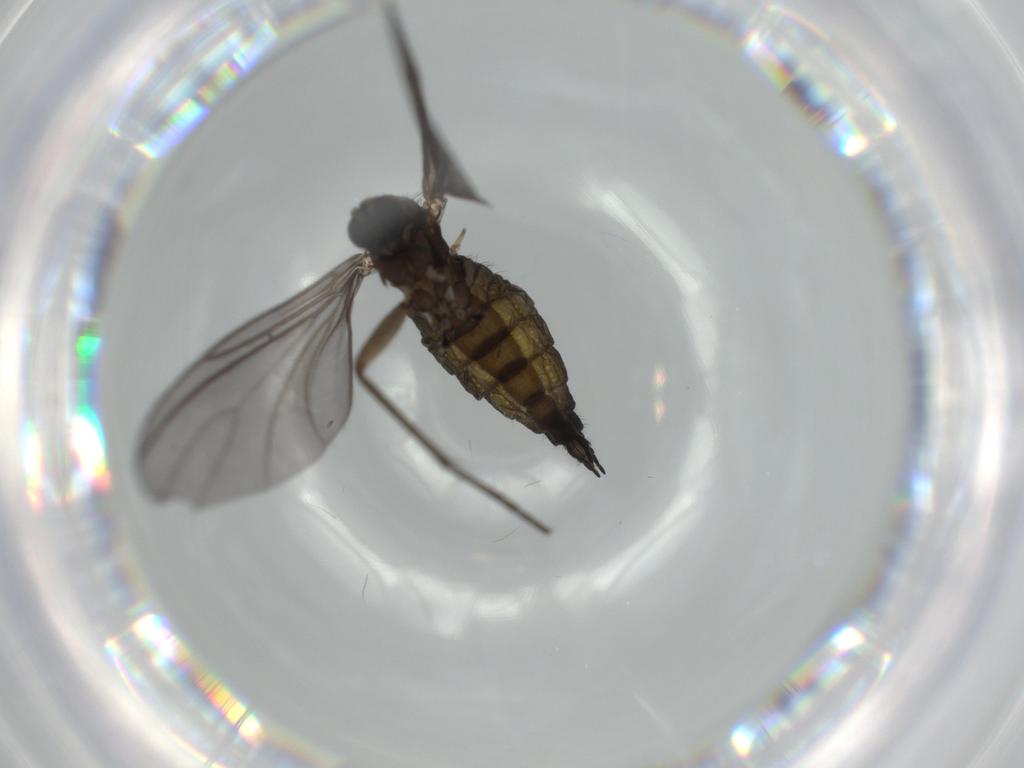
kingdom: Animalia
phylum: Arthropoda
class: Insecta
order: Diptera
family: Sciaridae
